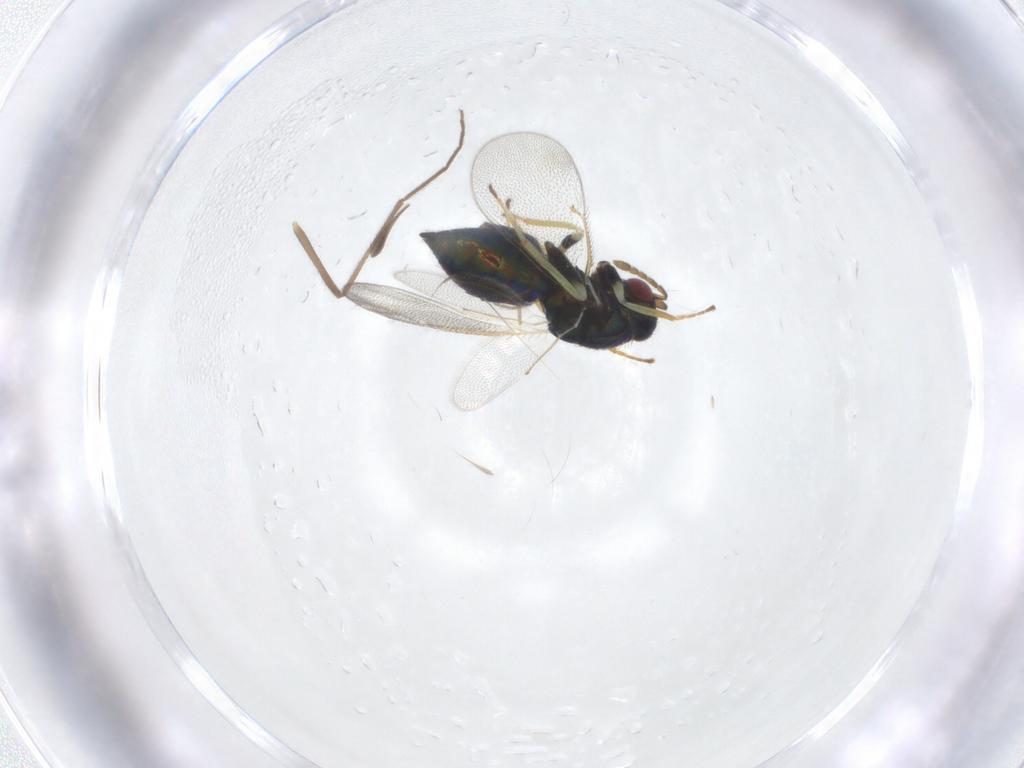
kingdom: Animalia
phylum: Arthropoda
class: Insecta
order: Hymenoptera
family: Eulophidae
